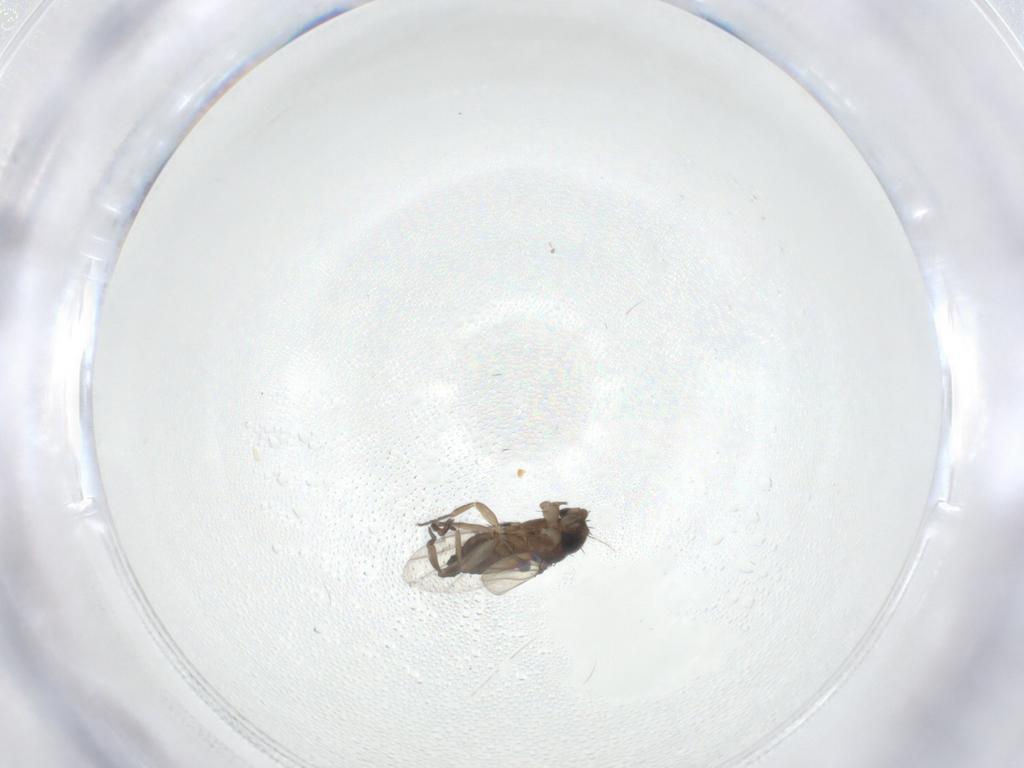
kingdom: Animalia
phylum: Arthropoda
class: Insecta
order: Diptera
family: Phoridae
